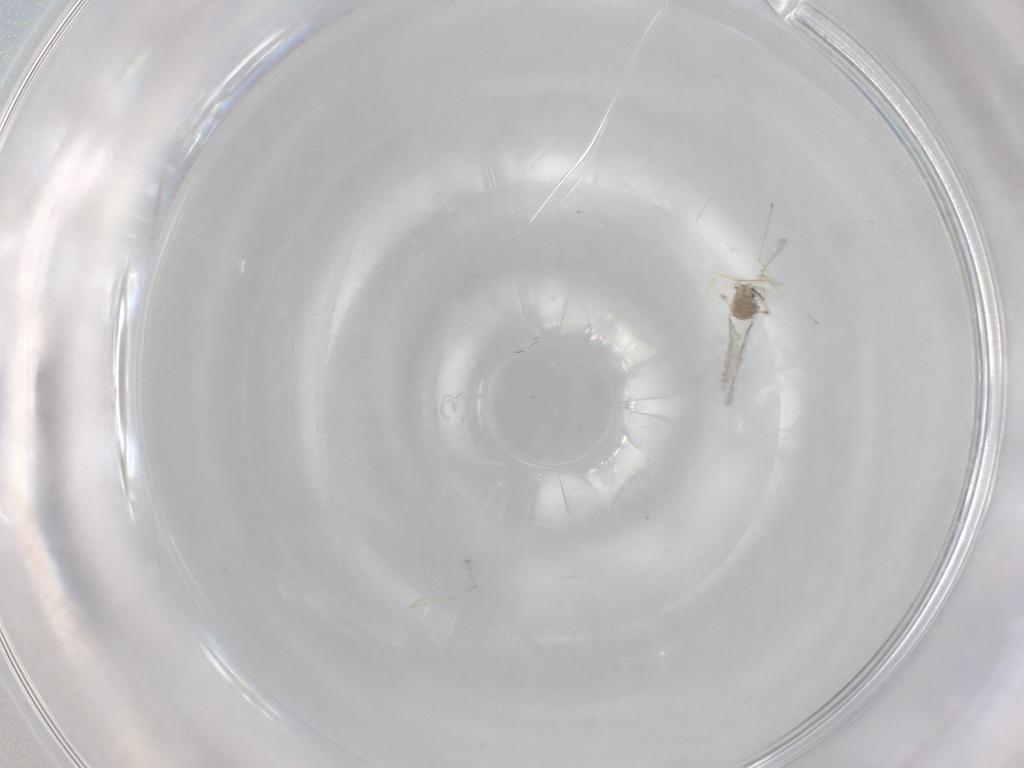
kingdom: Animalia
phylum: Arthropoda
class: Insecta
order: Diptera
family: Cecidomyiidae
